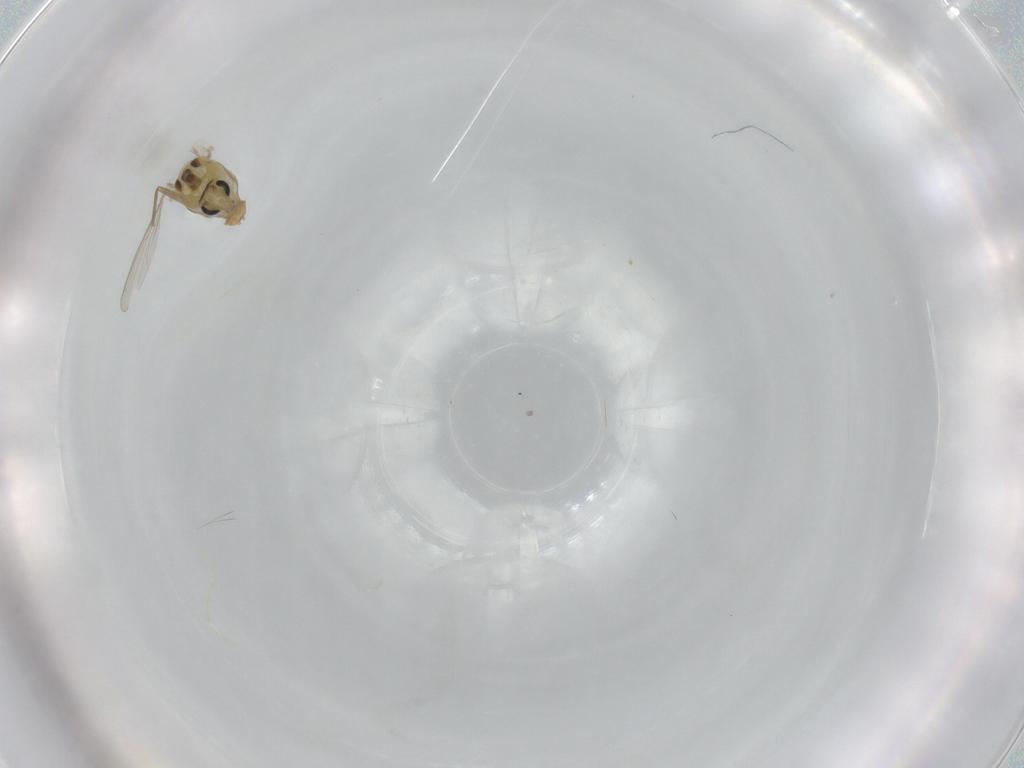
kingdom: Animalia
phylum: Arthropoda
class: Insecta
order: Diptera
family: Chironomidae
